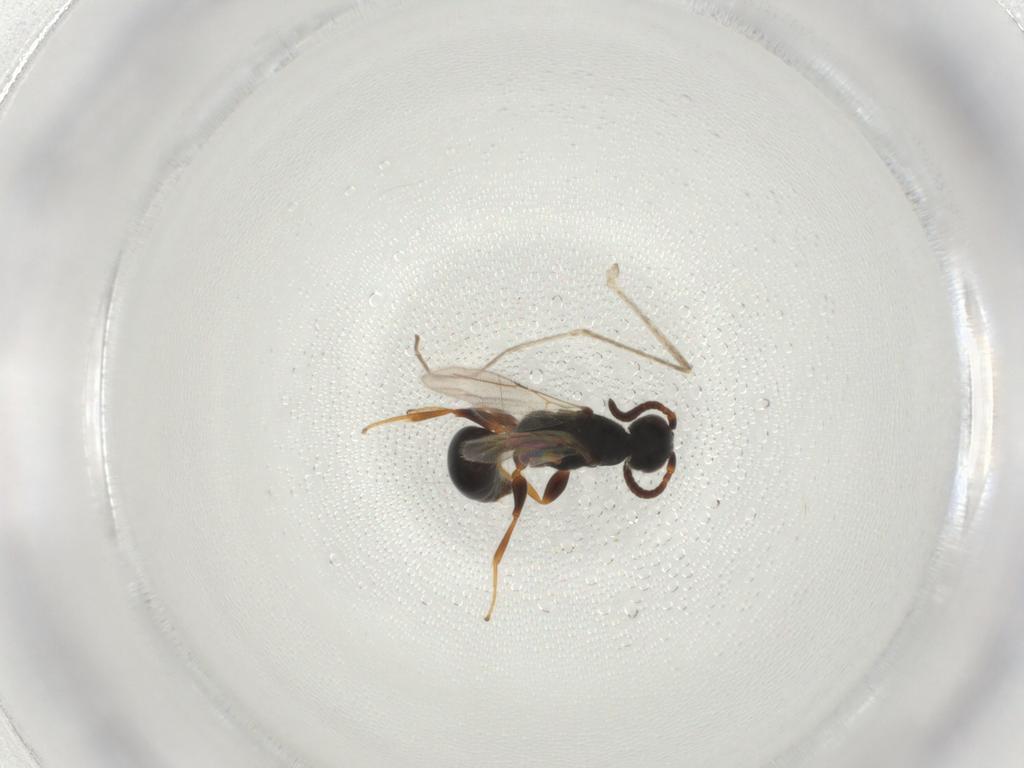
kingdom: Animalia
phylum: Arthropoda
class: Insecta
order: Hymenoptera
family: Bethylidae
